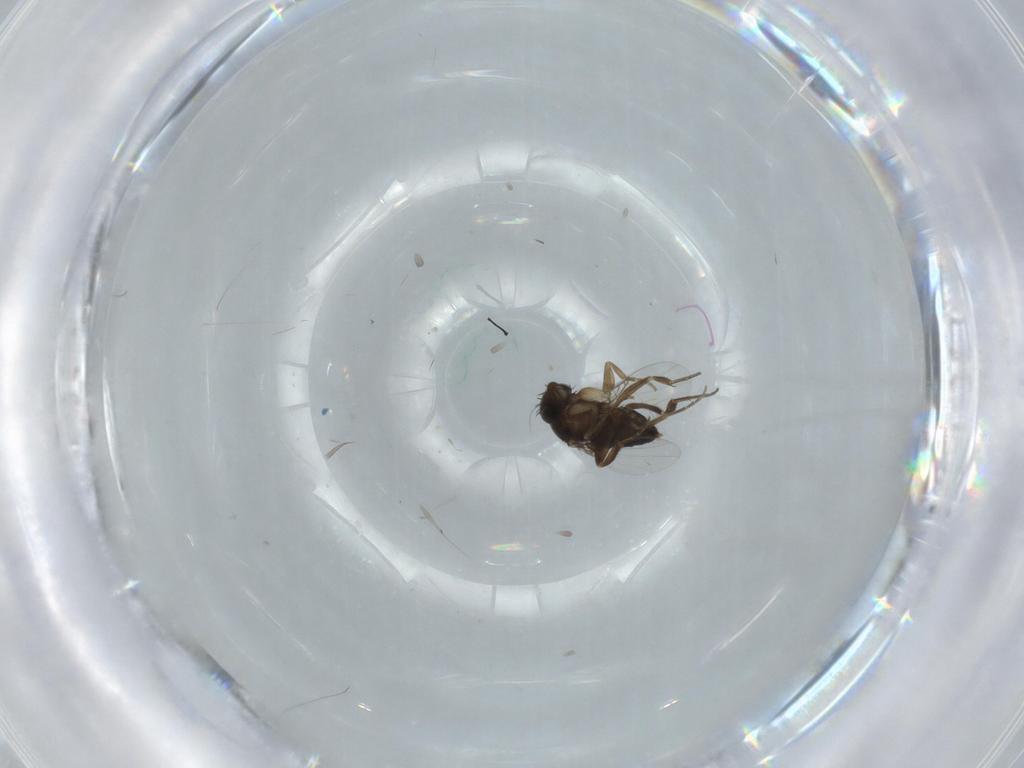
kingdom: Animalia
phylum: Arthropoda
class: Insecta
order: Diptera
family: Phoridae
